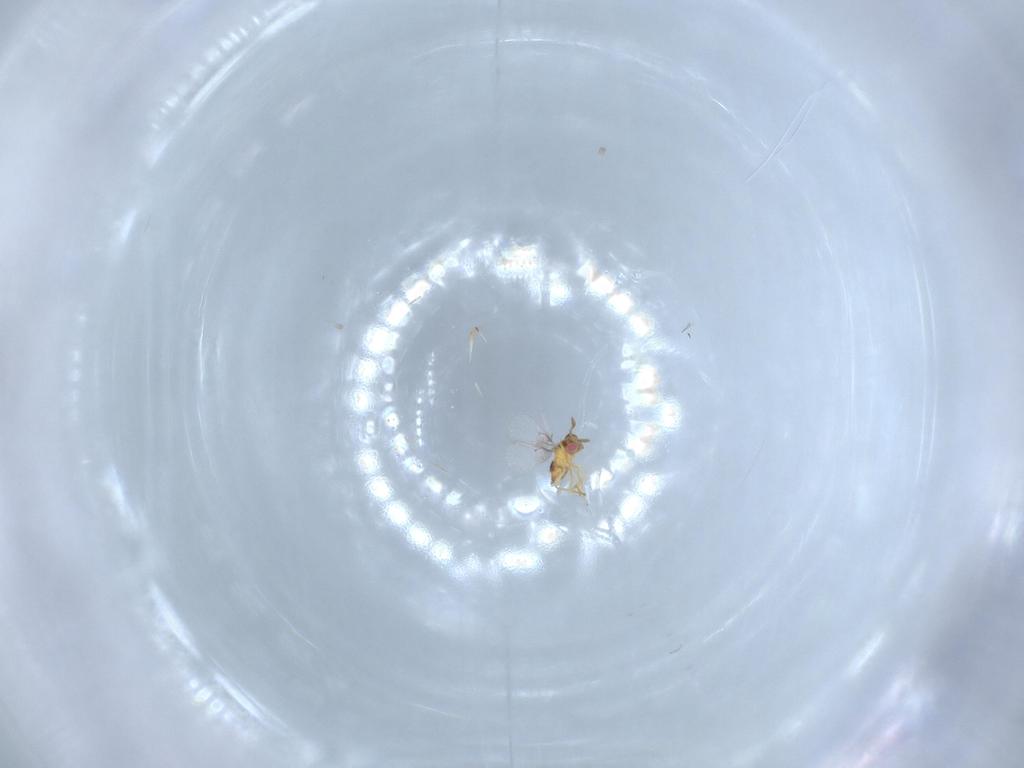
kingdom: Animalia
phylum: Arthropoda
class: Insecta
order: Hymenoptera
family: Trichogrammatidae
